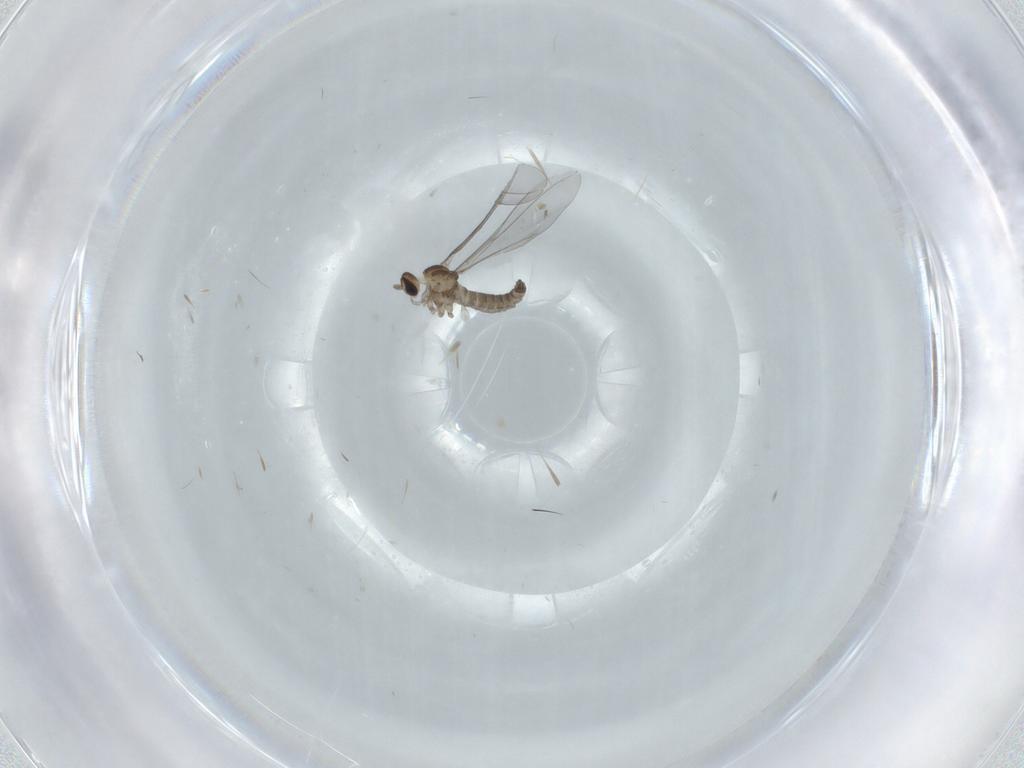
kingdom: Animalia
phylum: Arthropoda
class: Insecta
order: Diptera
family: Cecidomyiidae
